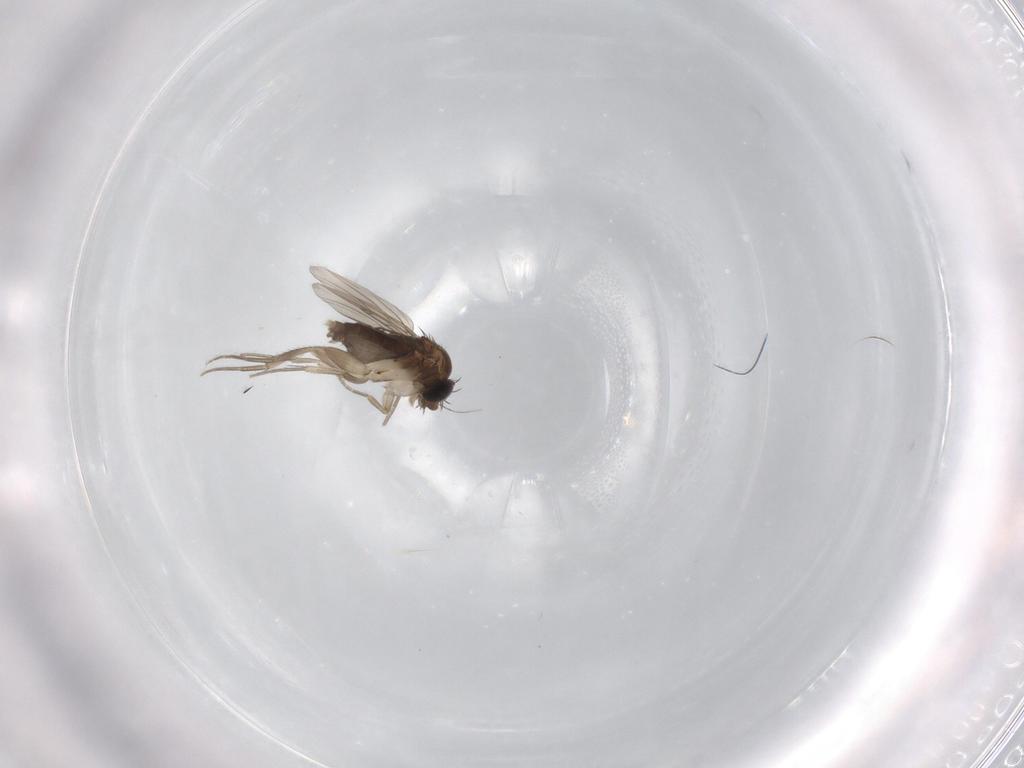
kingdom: Animalia
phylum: Arthropoda
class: Insecta
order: Diptera
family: Phoridae
